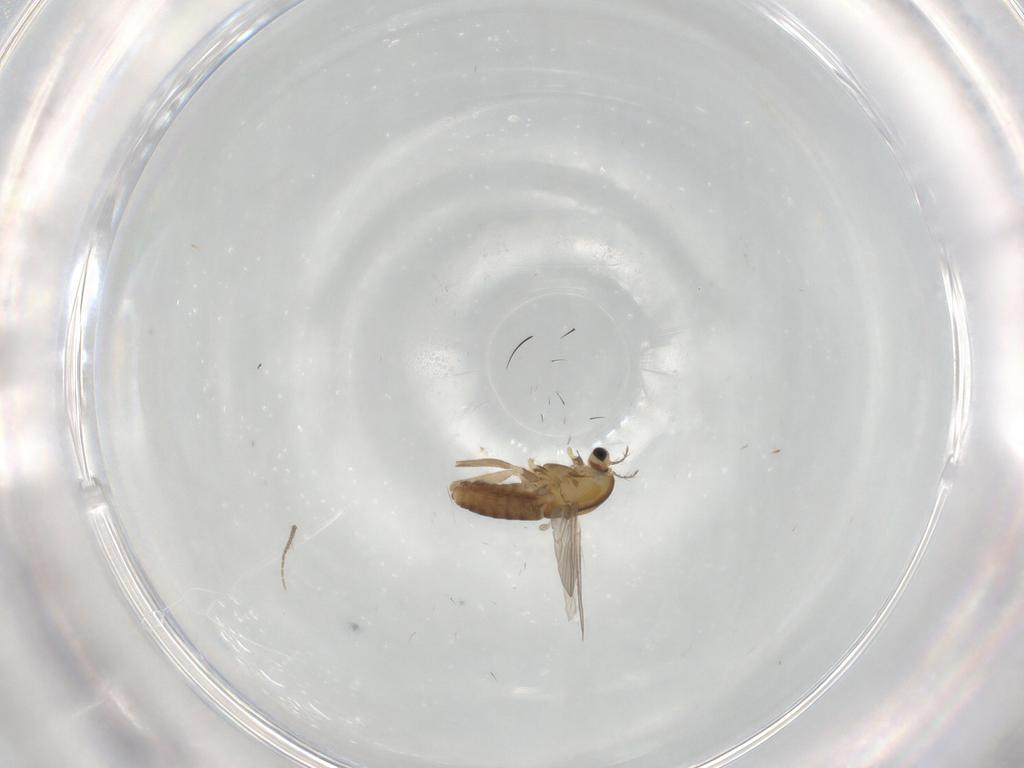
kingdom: Animalia
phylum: Arthropoda
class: Insecta
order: Diptera
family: Chironomidae
